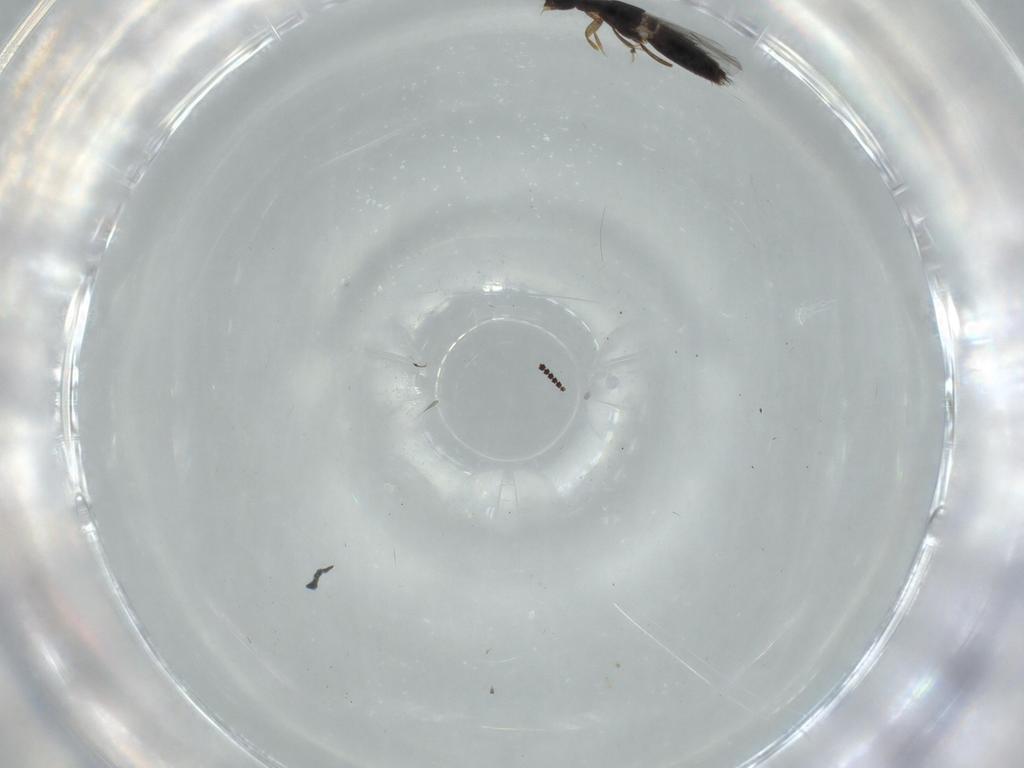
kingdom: Animalia
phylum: Arthropoda
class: Insecta
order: Coleoptera
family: Staphylinidae
